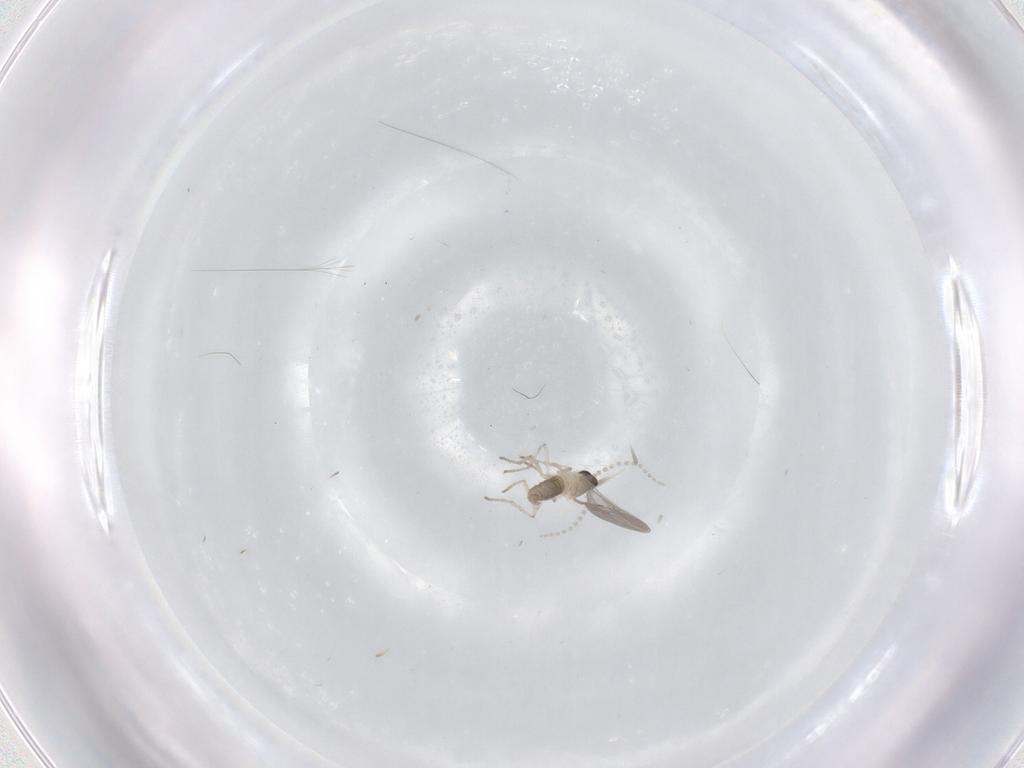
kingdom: Animalia
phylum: Arthropoda
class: Insecta
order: Diptera
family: Cecidomyiidae
